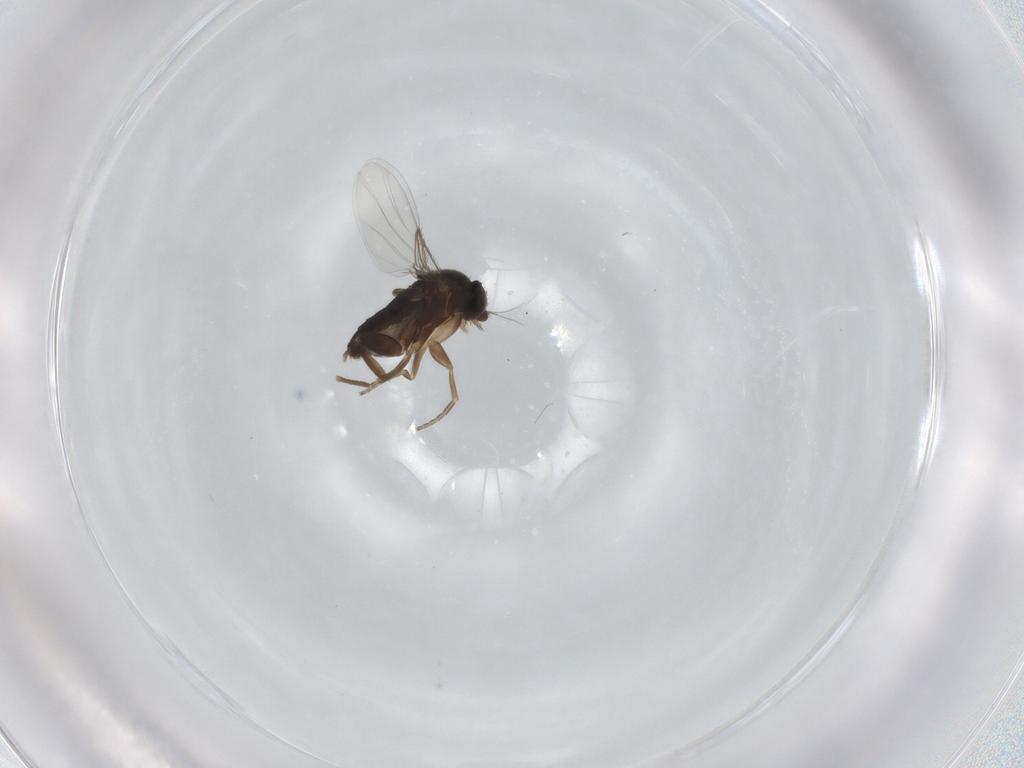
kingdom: Animalia
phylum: Arthropoda
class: Insecta
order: Diptera
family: Phoridae
